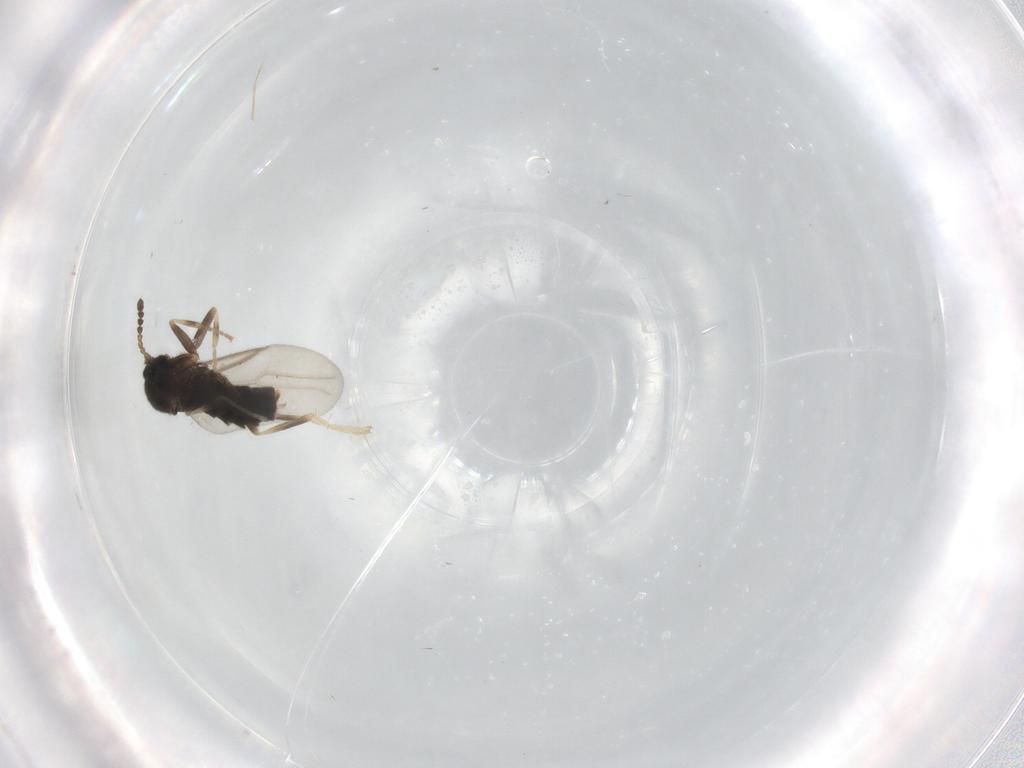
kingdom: Animalia
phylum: Arthropoda
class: Insecta
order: Diptera
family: Scatopsidae
